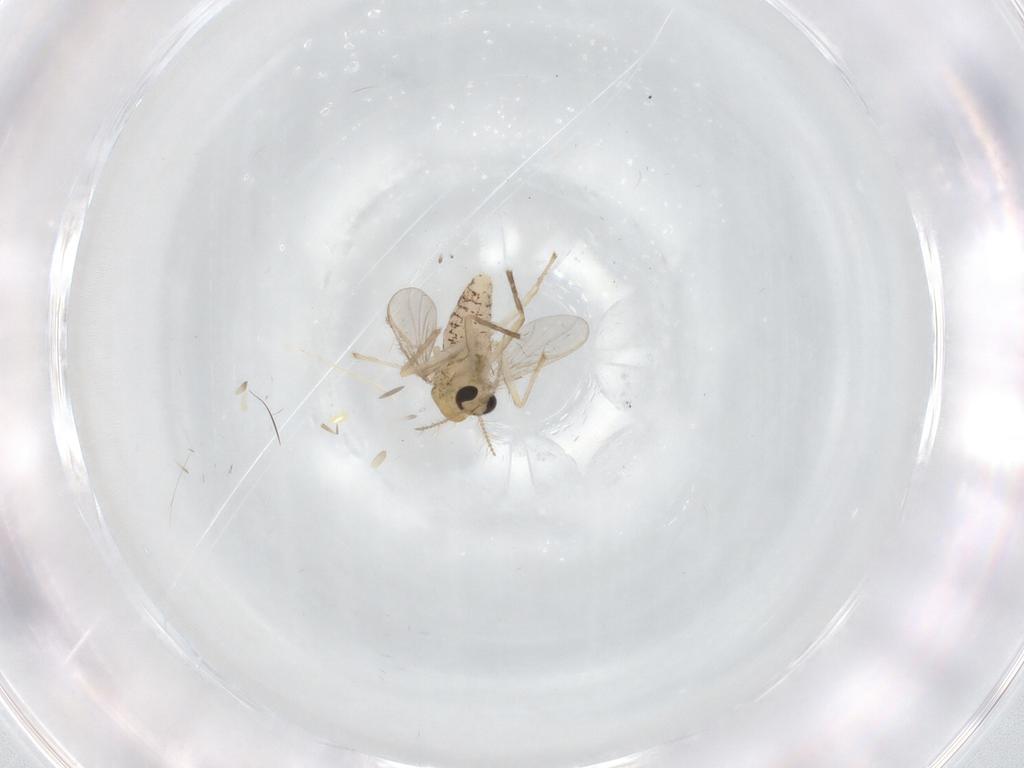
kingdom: Animalia
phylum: Arthropoda
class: Insecta
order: Diptera
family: Chironomidae
